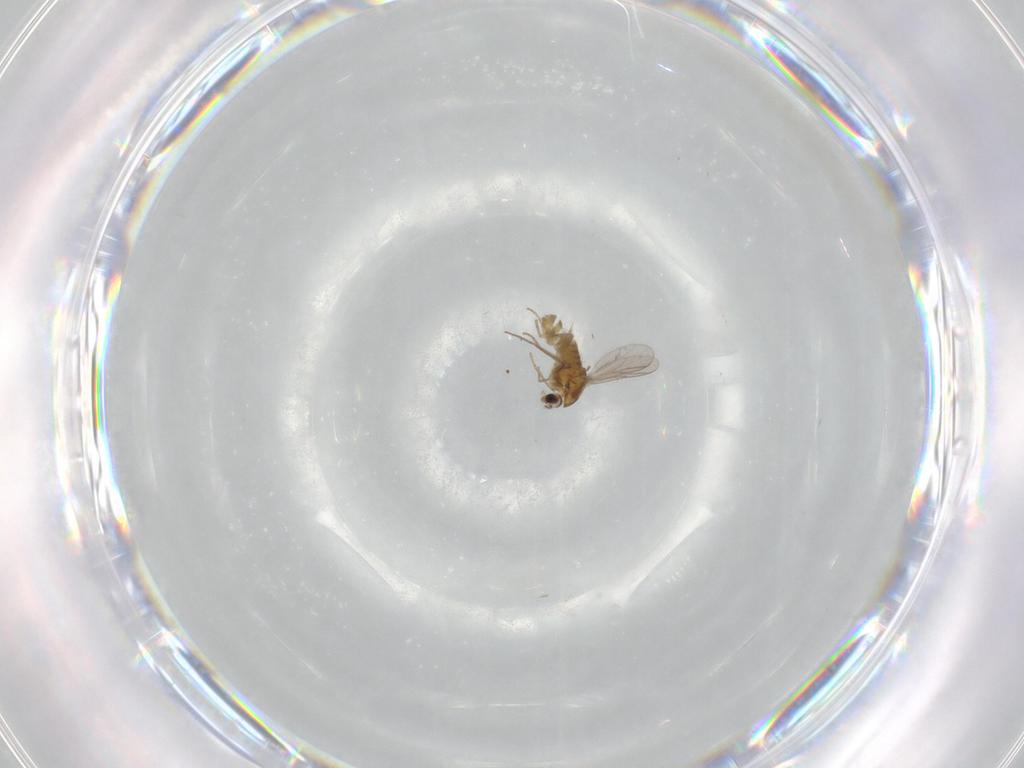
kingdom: Animalia
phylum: Arthropoda
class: Insecta
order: Diptera
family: Chironomidae
